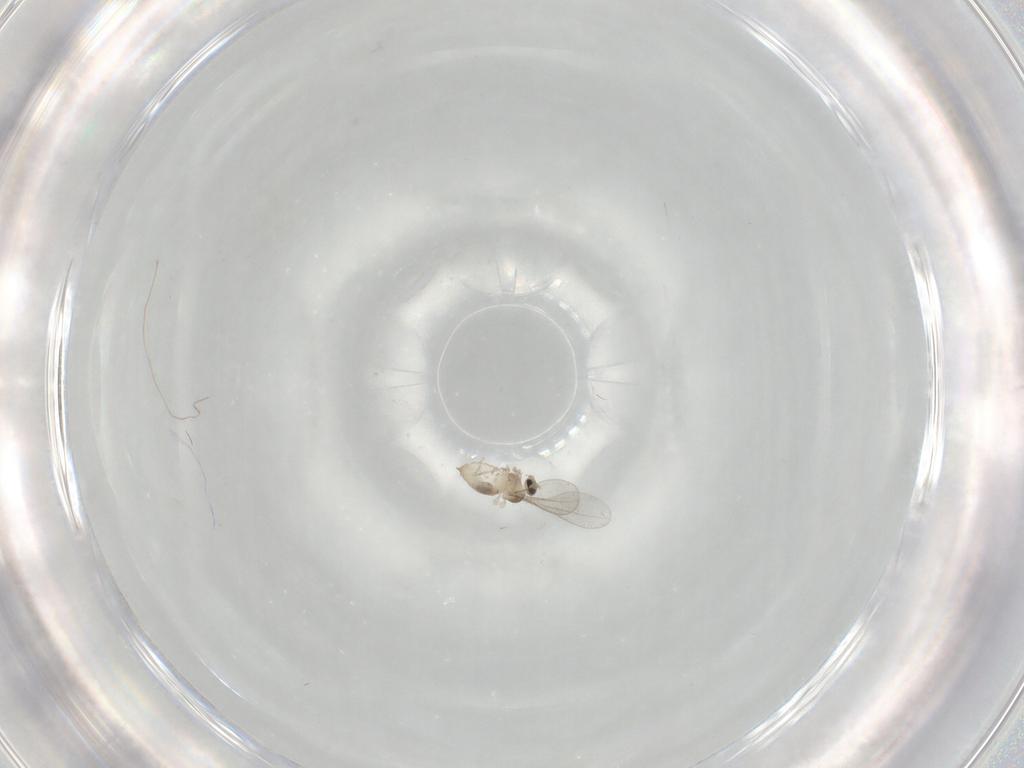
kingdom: Animalia
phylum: Arthropoda
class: Insecta
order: Diptera
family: Cecidomyiidae
